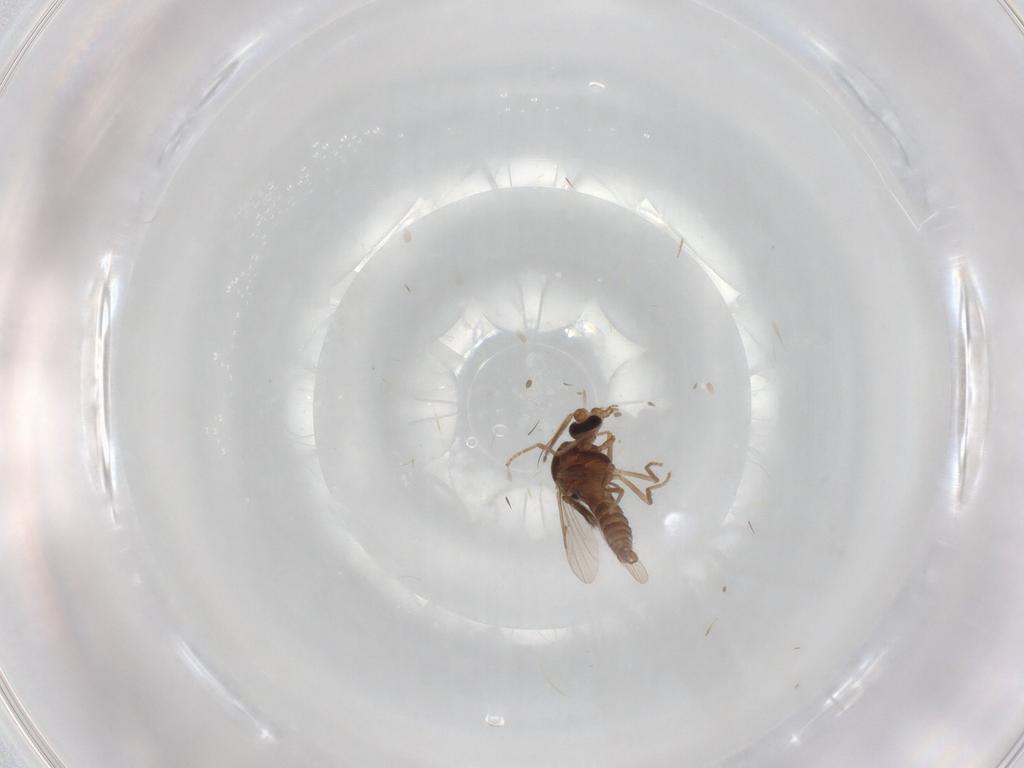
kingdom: Animalia
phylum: Arthropoda
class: Insecta
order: Diptera
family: Ceratopogonidae
